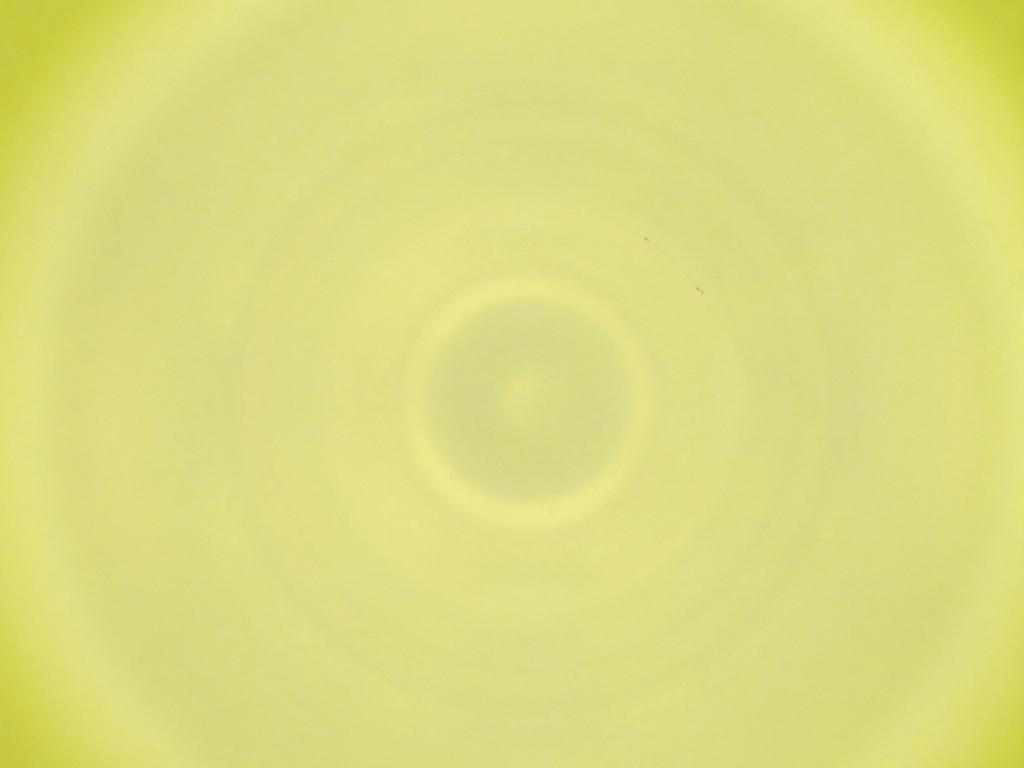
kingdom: Animalia
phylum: Arthropoda
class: Insecta
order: Diptera
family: Cecidomyiidae
